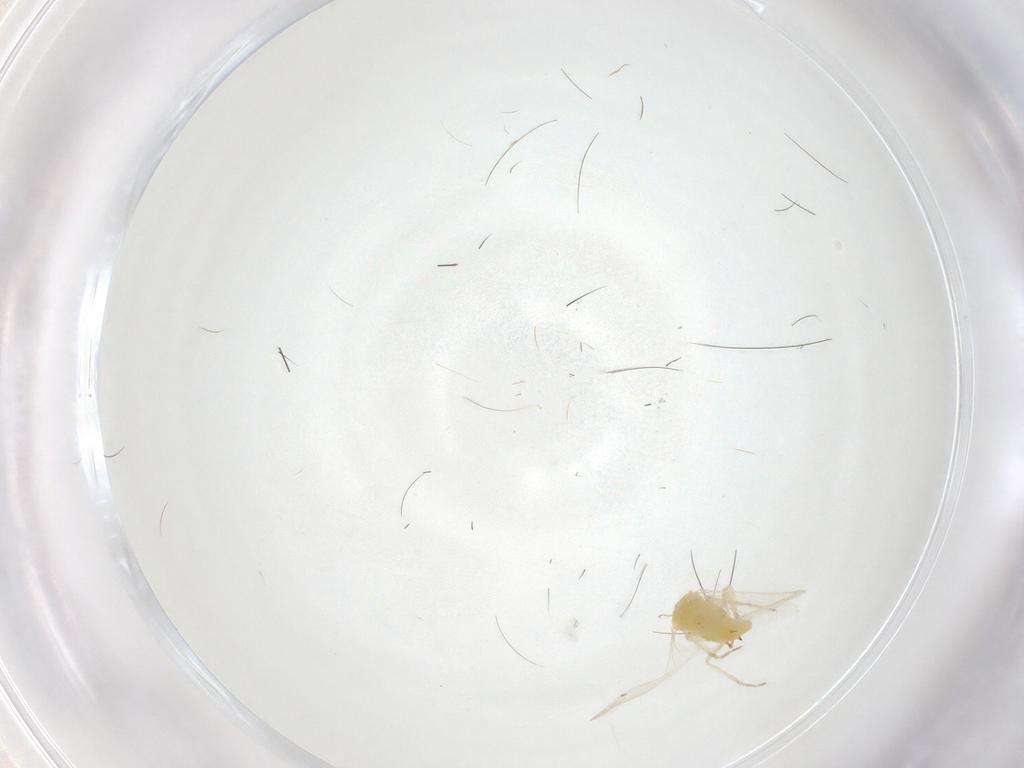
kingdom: Animalia
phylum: Arthropoda
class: Insecta
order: Hemiptera
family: Aleyrodidae
